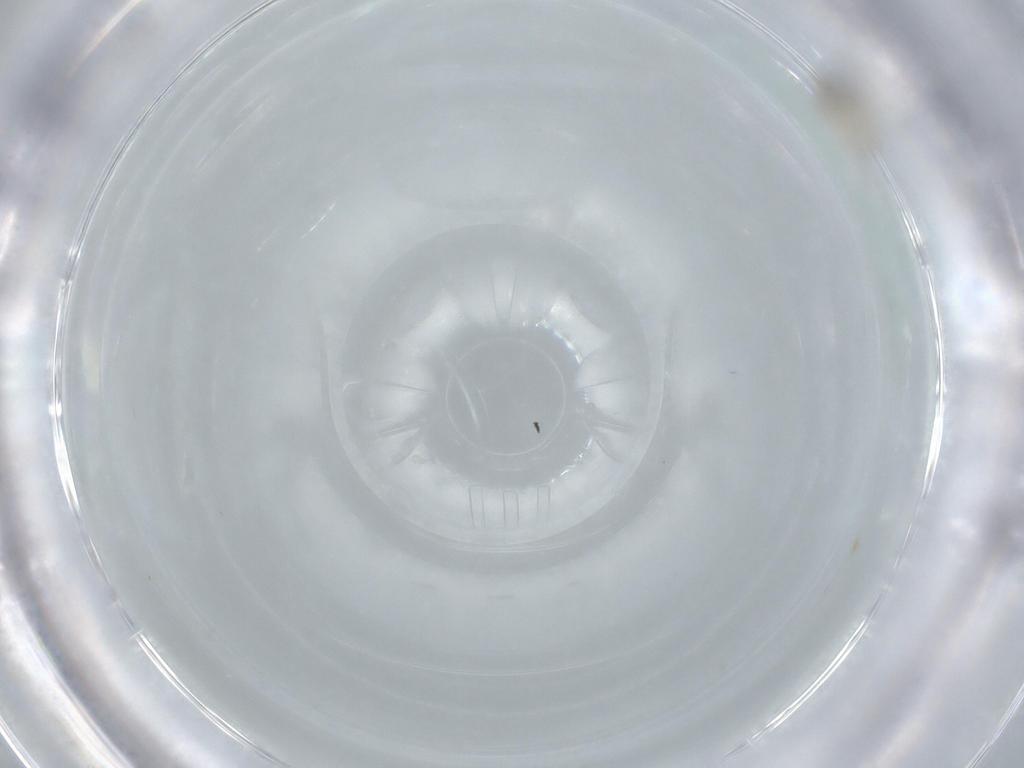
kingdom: Animalia
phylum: Arthropoda
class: Insecta
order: Diptera
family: Cecidomyiidae
